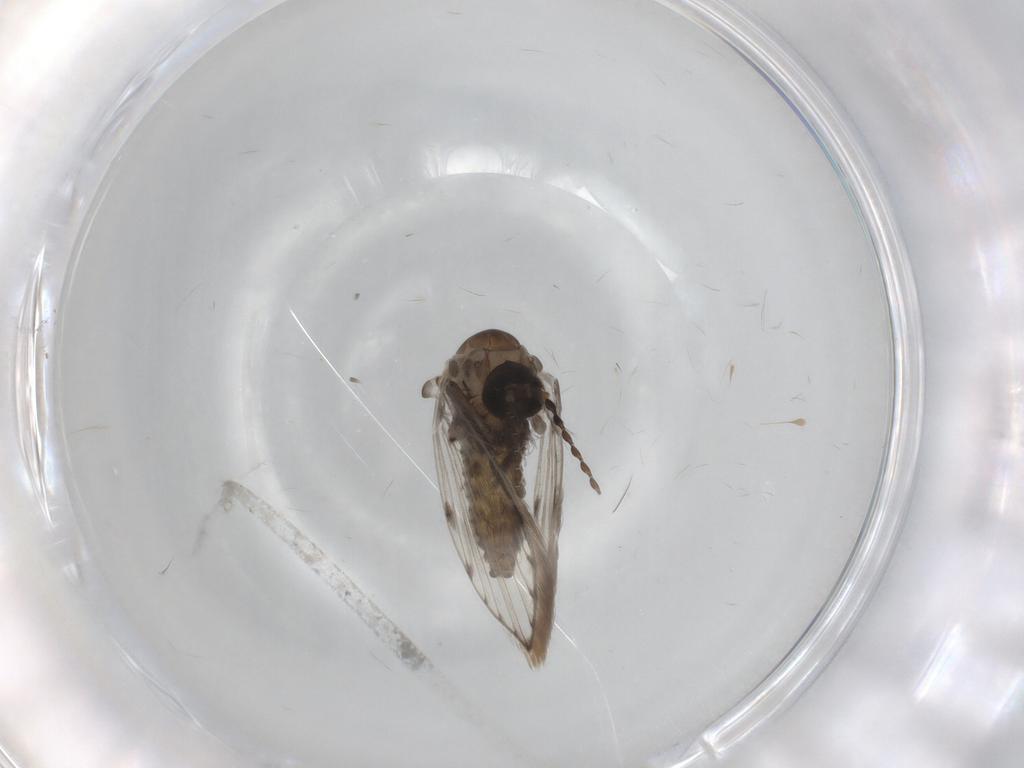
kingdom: Animalia
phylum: Arthropoda
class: Insecta
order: Diptera
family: Psychodidae
